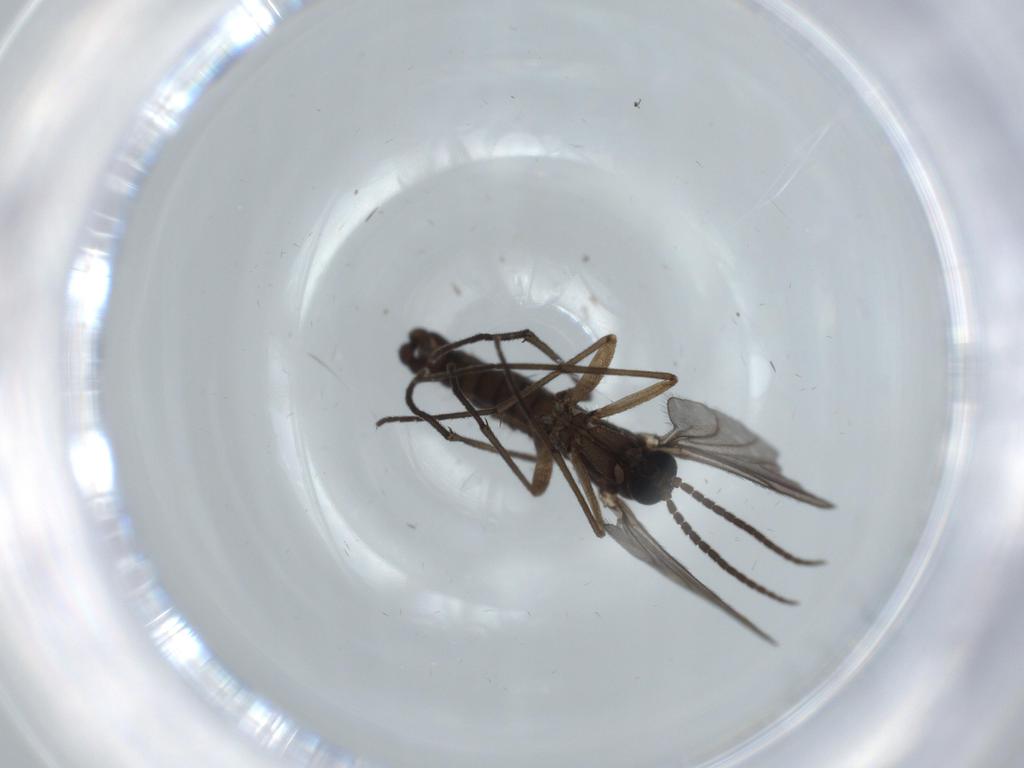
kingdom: Animalia
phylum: Arthropoda
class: Insecta
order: Diptera
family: Sciaridae
